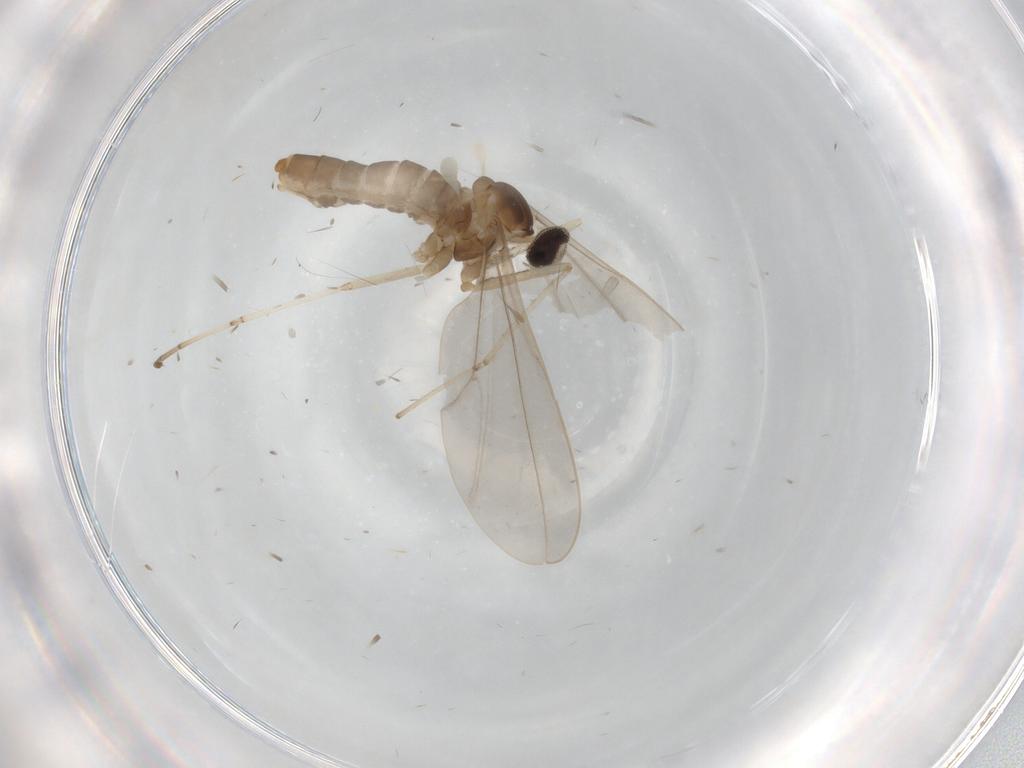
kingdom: Animalia
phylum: Arthropoda
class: Insecta
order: Diptera
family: Cecidomyiidae
